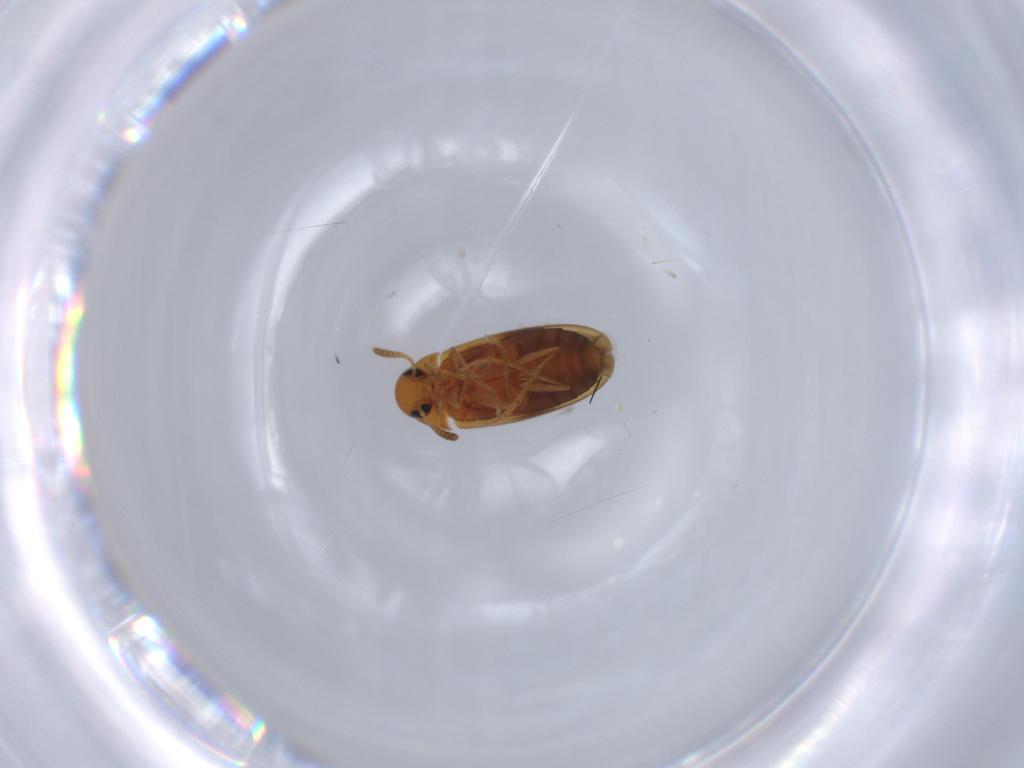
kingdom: Animalia
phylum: Arthropoda
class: Insecta
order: Coleoptera
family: Scraptiidae
